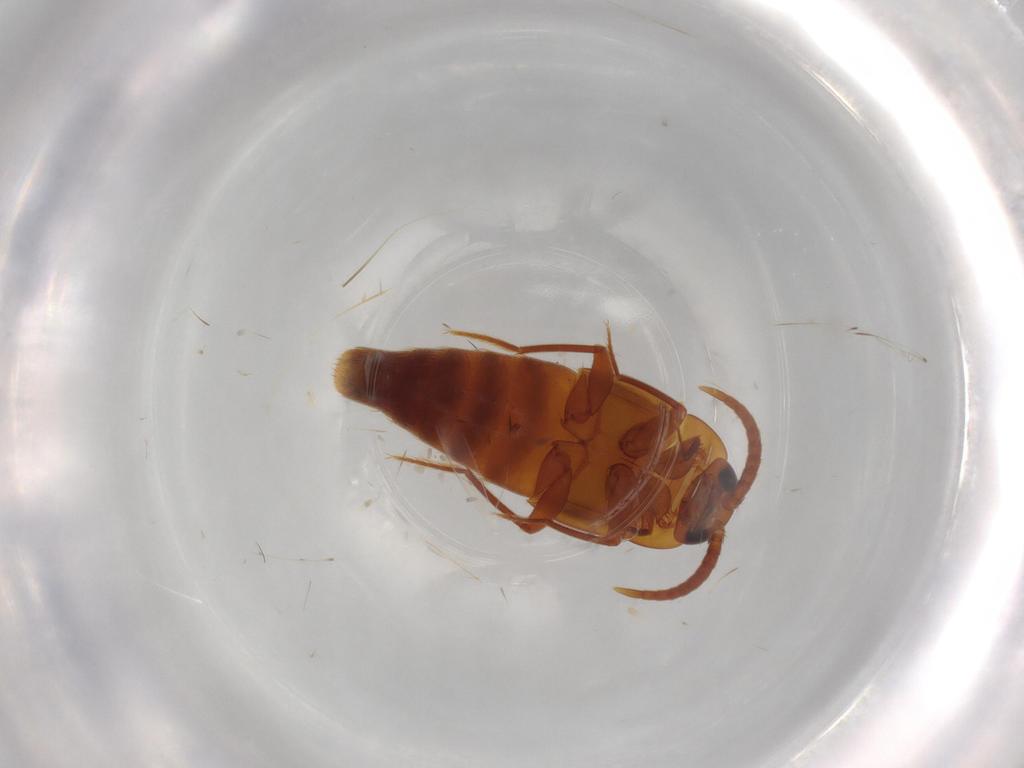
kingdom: Animalia
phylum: Arthropoda
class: Insecta
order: Coleoptera
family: Staphylinidae
